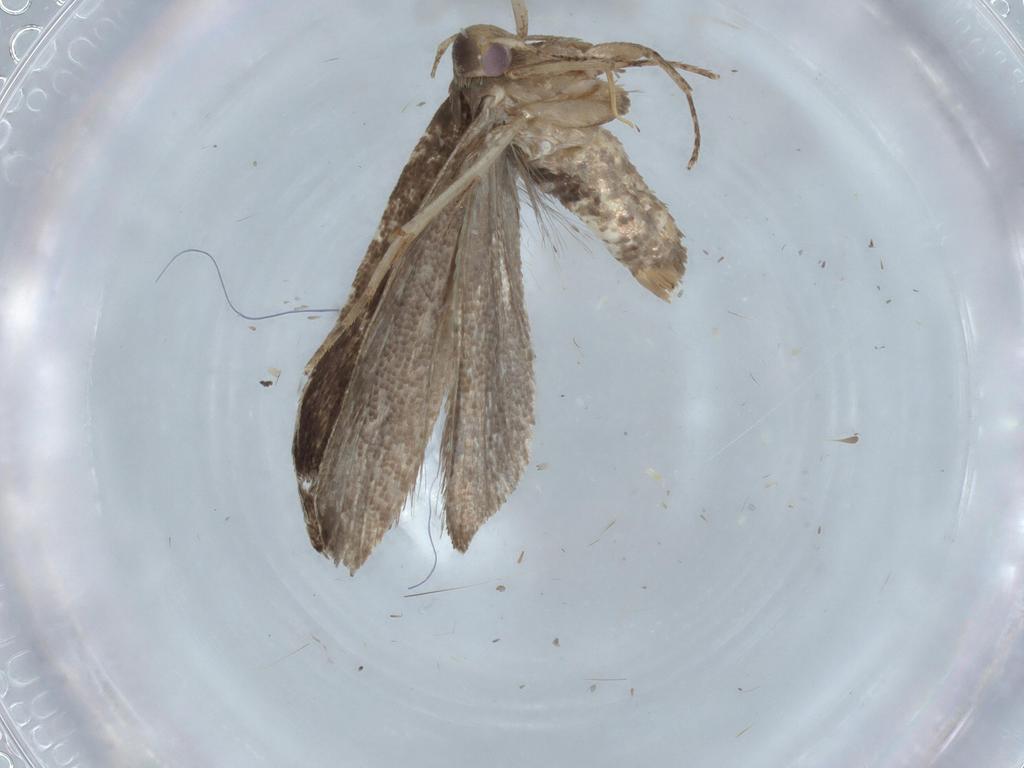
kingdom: Animalia
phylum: Arthropoda
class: Insecta
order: Lepidoptera
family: Gelechiidae
